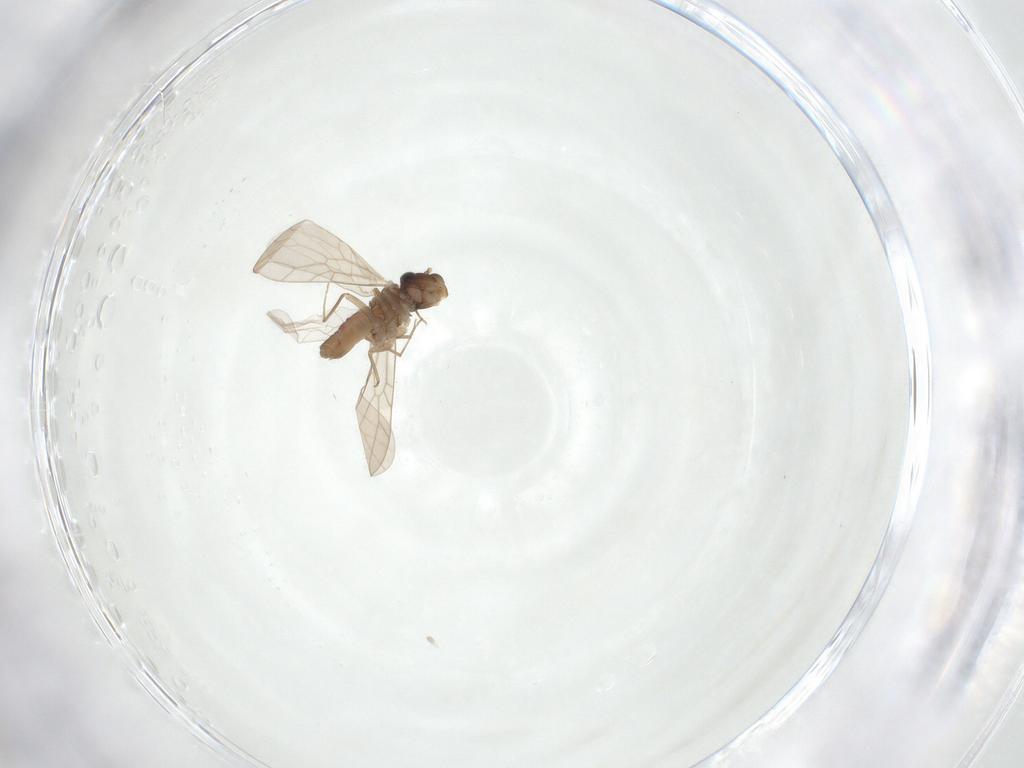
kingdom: Animalia
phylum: Arthropoda
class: Insecta
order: Psocodea
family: Lepidopsocidae
